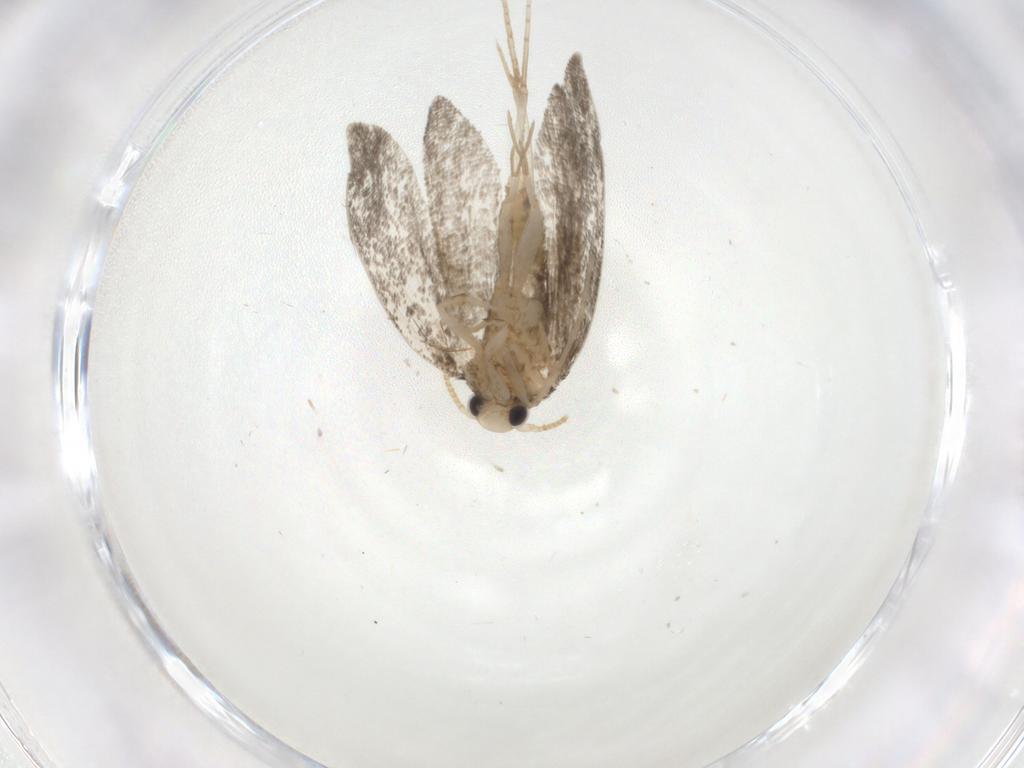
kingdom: Animalia
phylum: Arthropoda
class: Insecta
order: Lepidoptera
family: Psychidae
